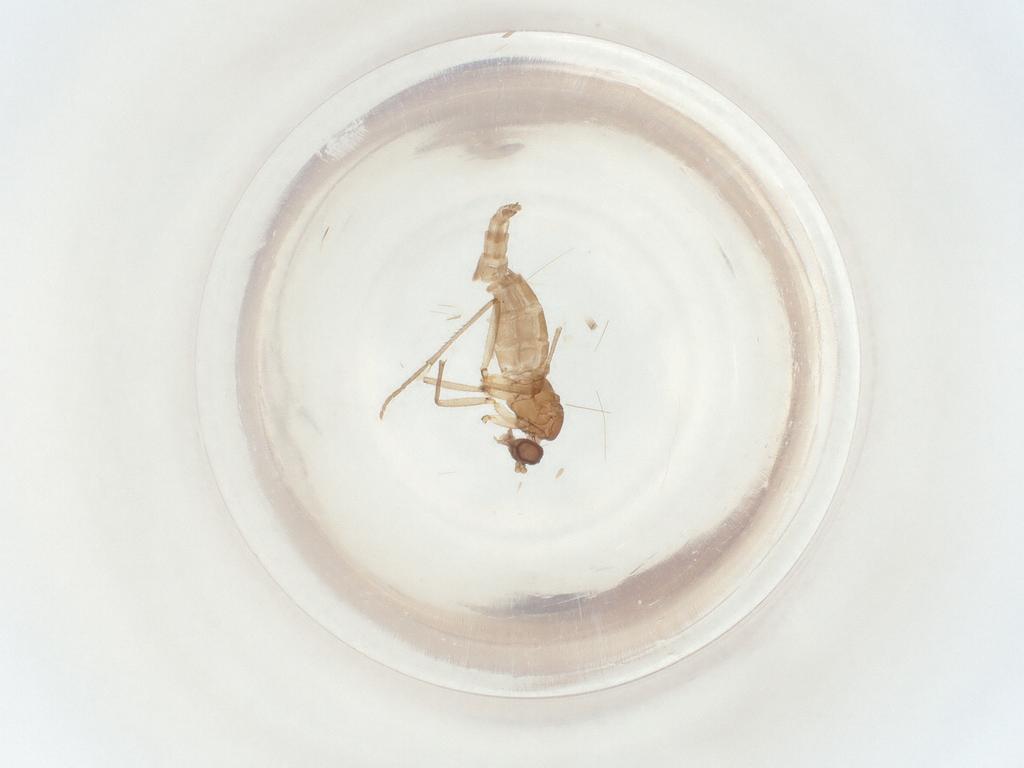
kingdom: Animalia
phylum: Arthropoda
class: Insecta
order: Diptera
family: Sciaridae
